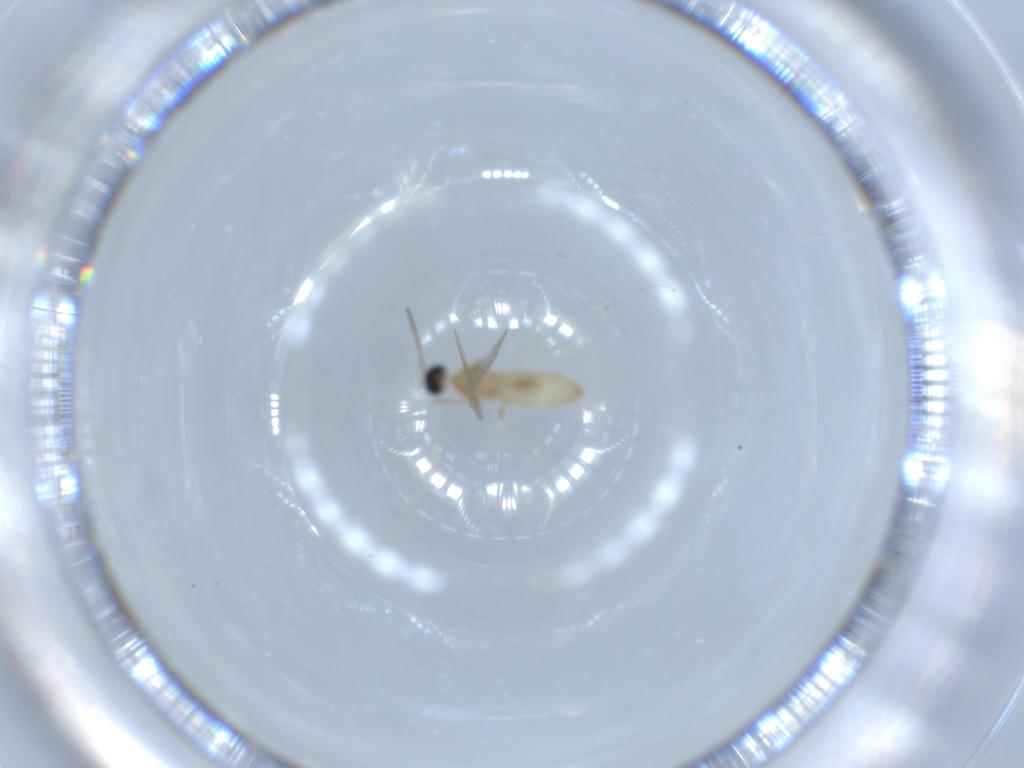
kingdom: Animalia
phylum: Arthropoda
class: Insecta
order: Diptera
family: Cecidomyiidae
